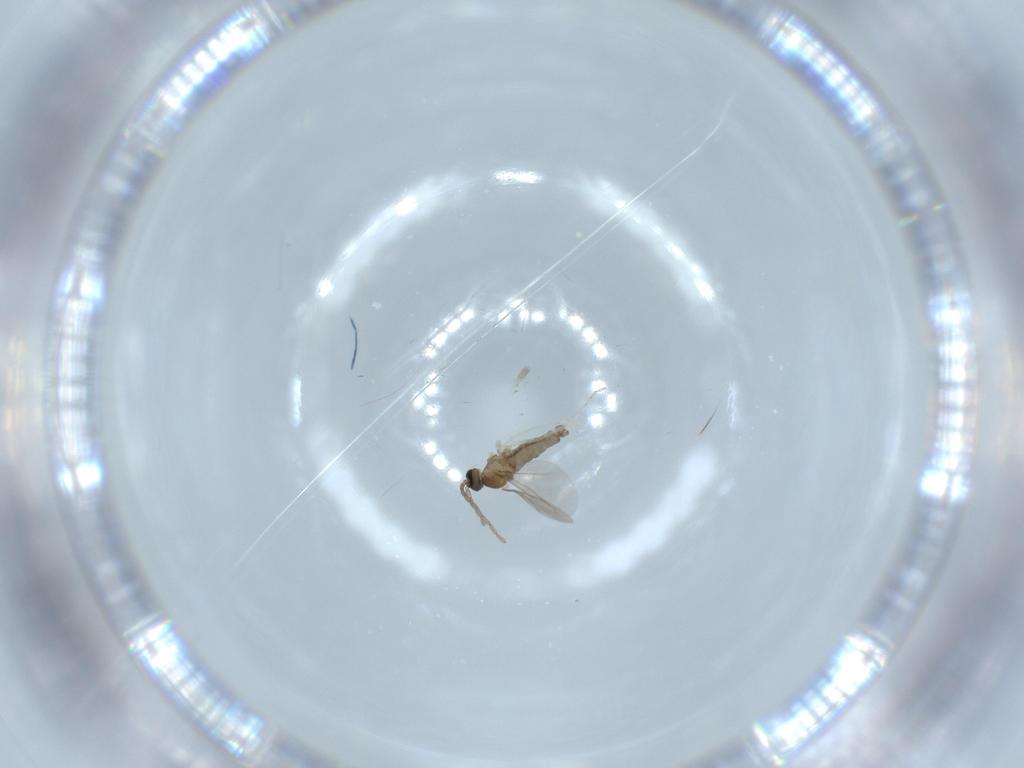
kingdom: Animalia
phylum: Arthropoda
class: Insecta
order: Diptera
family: Cecidomyiidae
